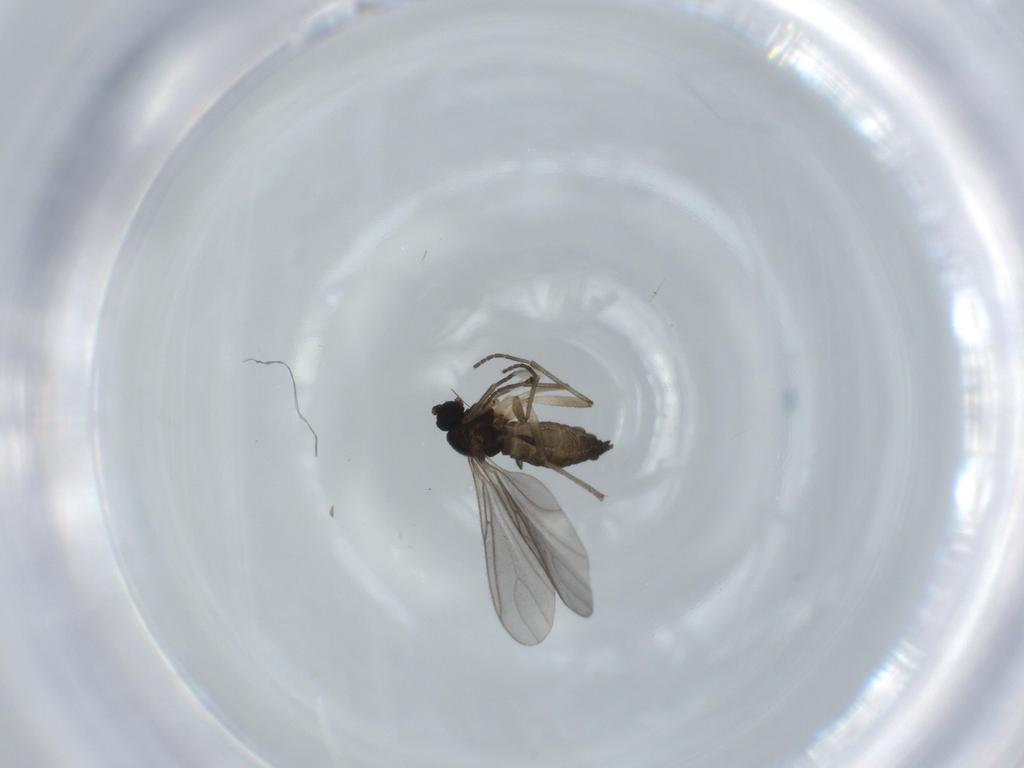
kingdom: Animalia
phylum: Arthropoda
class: Insecta
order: Diptera
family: Sciaridae
